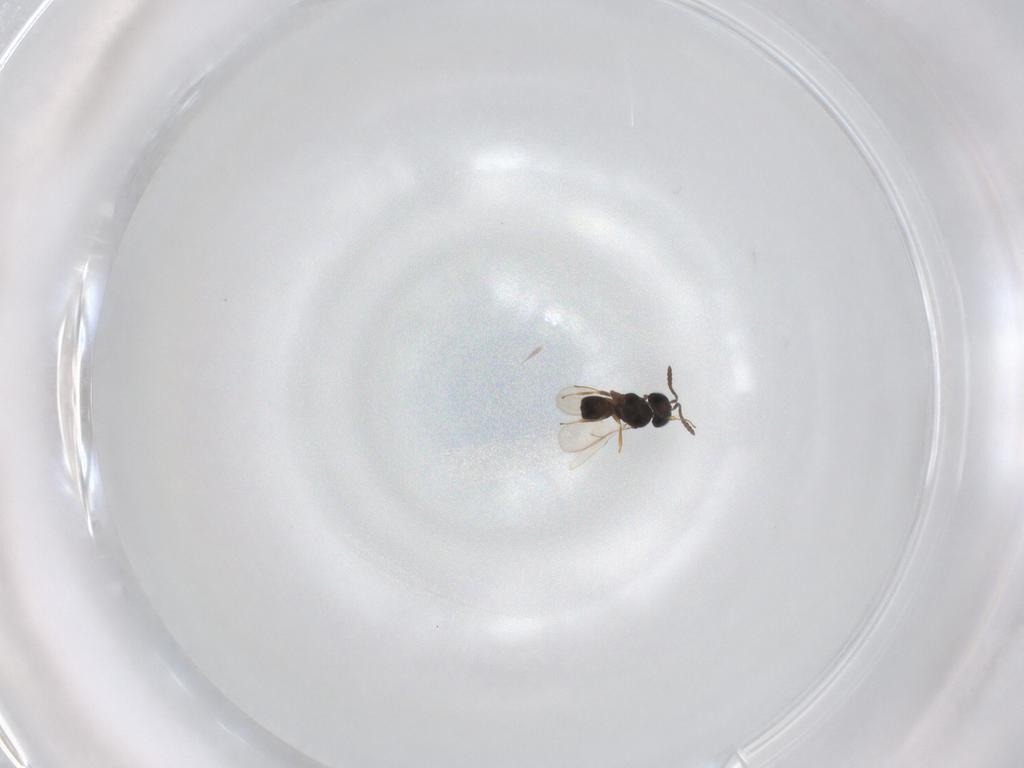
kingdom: Animalia
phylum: Arthropoda
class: Insecta
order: Hymenoptera
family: Scelionidae
